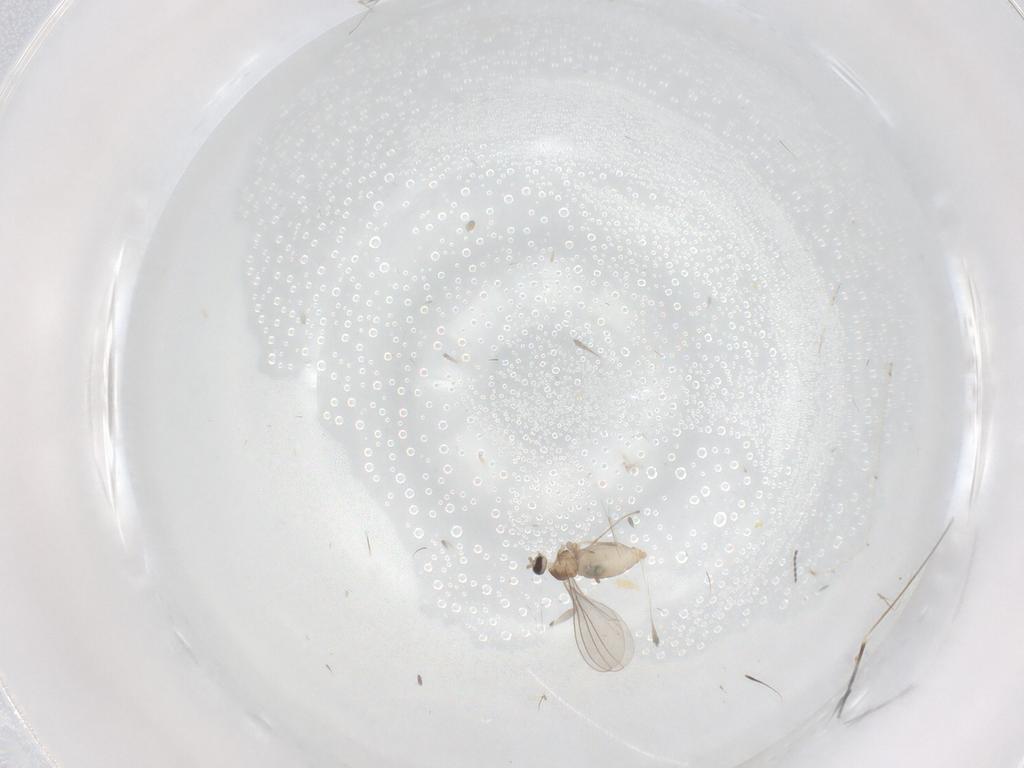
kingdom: Animalia
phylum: Arthropoda
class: Insecta
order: Diptera
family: Cecidomyiidae
